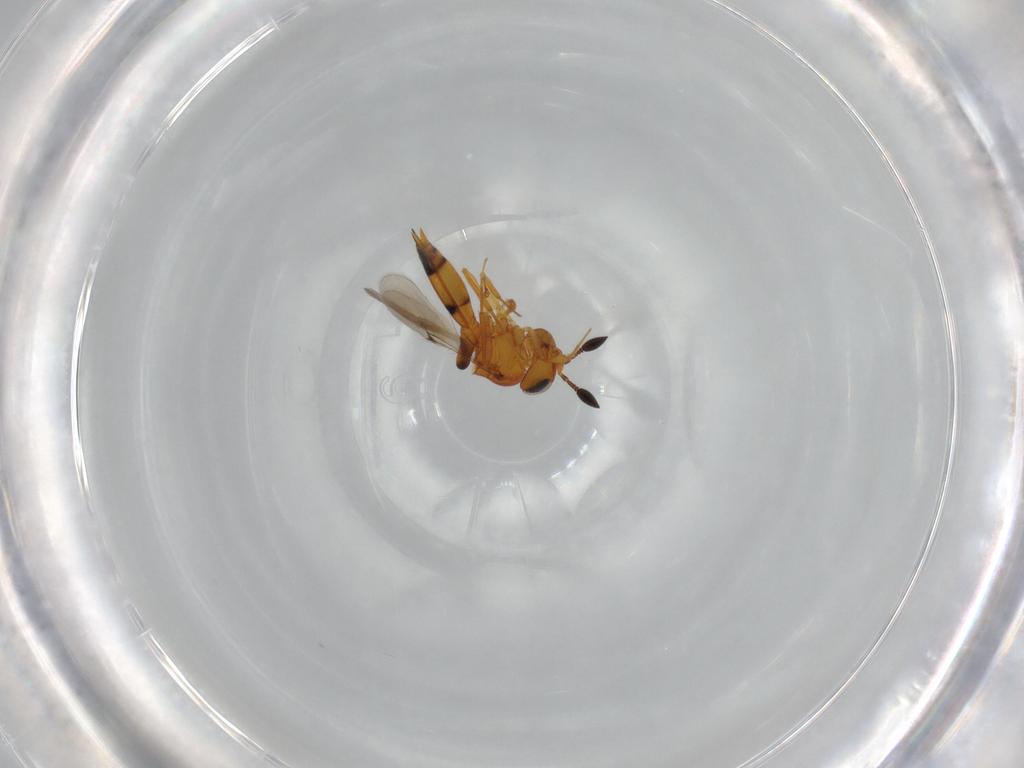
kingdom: Animalia
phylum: Arthropoda
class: Insecta
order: Hymenoptera
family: Scelionidae
